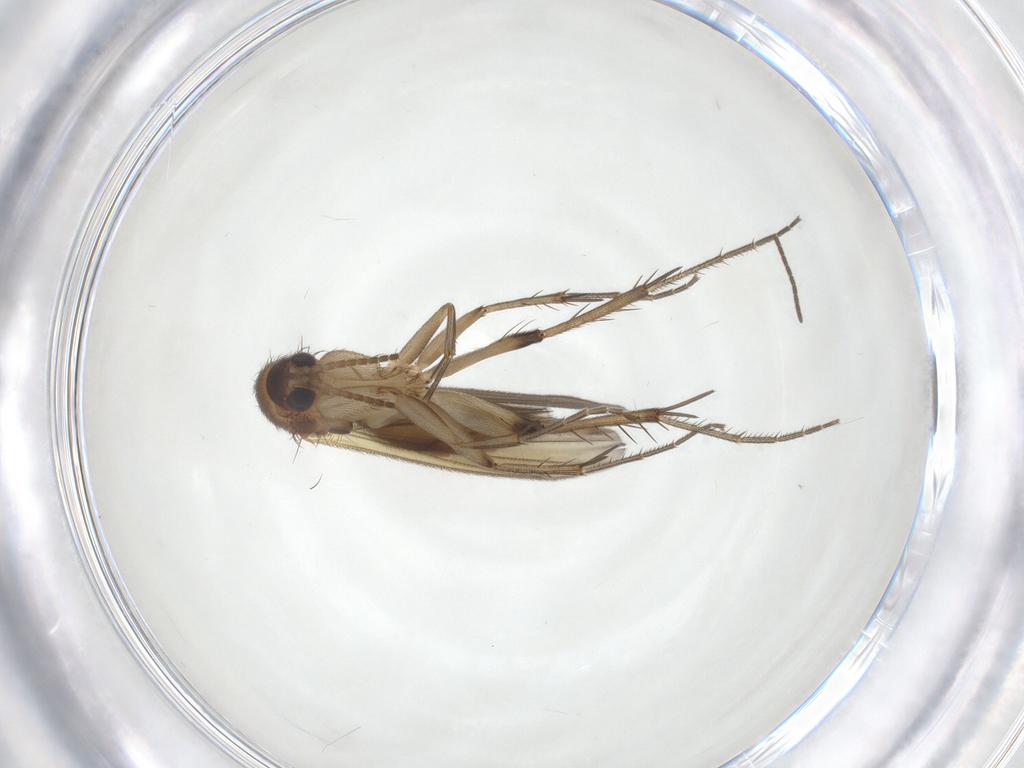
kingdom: Animalia
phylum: Arthropoda
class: Insecta
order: Diptera
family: Mycetophilidae
